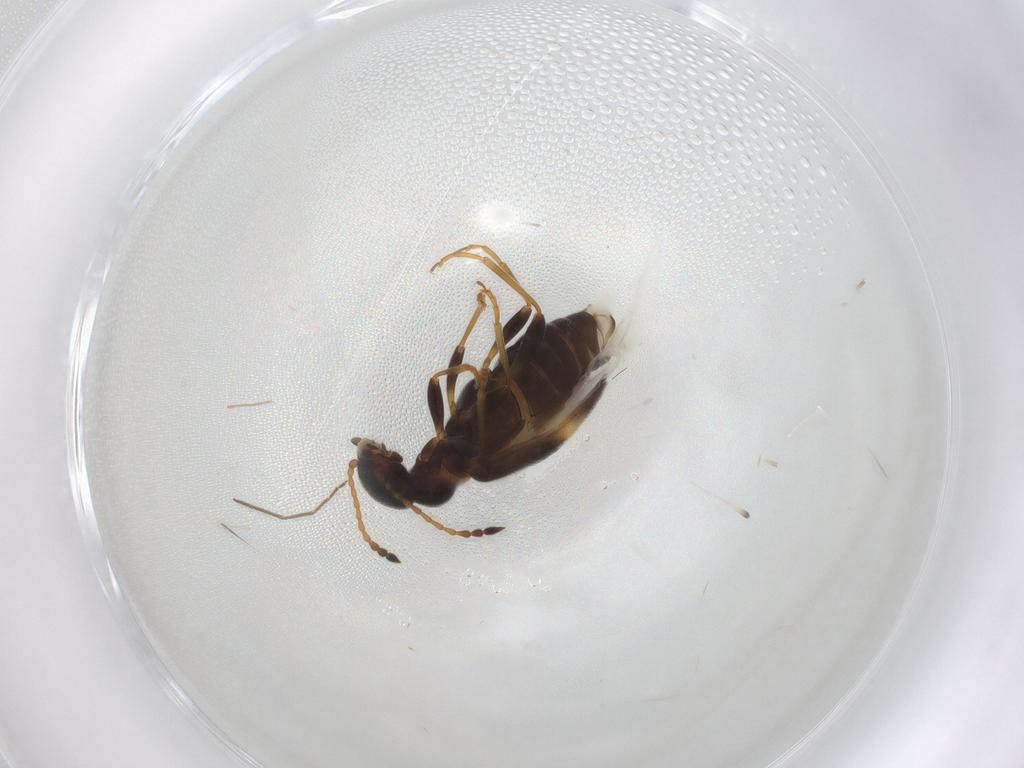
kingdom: Animalia
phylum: Arthropoda
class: Insecta
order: Coleoptera
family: Anthicidae
